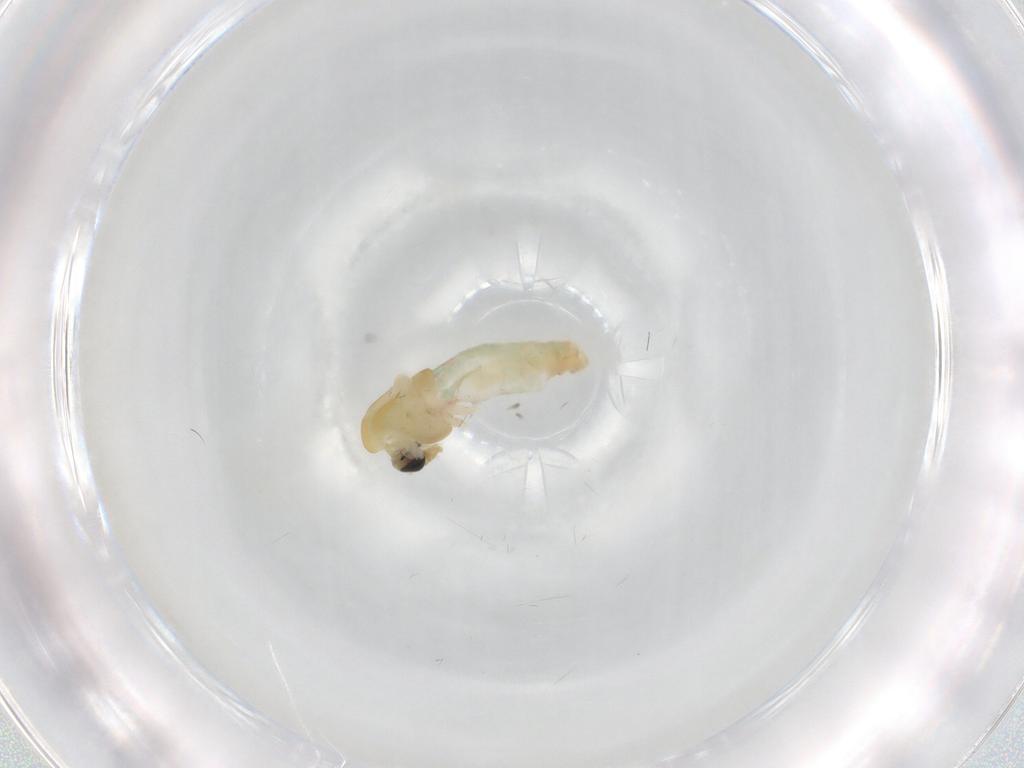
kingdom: Animalia
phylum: Arthropoda
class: Insecta
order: Diptera
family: Chironomidae
